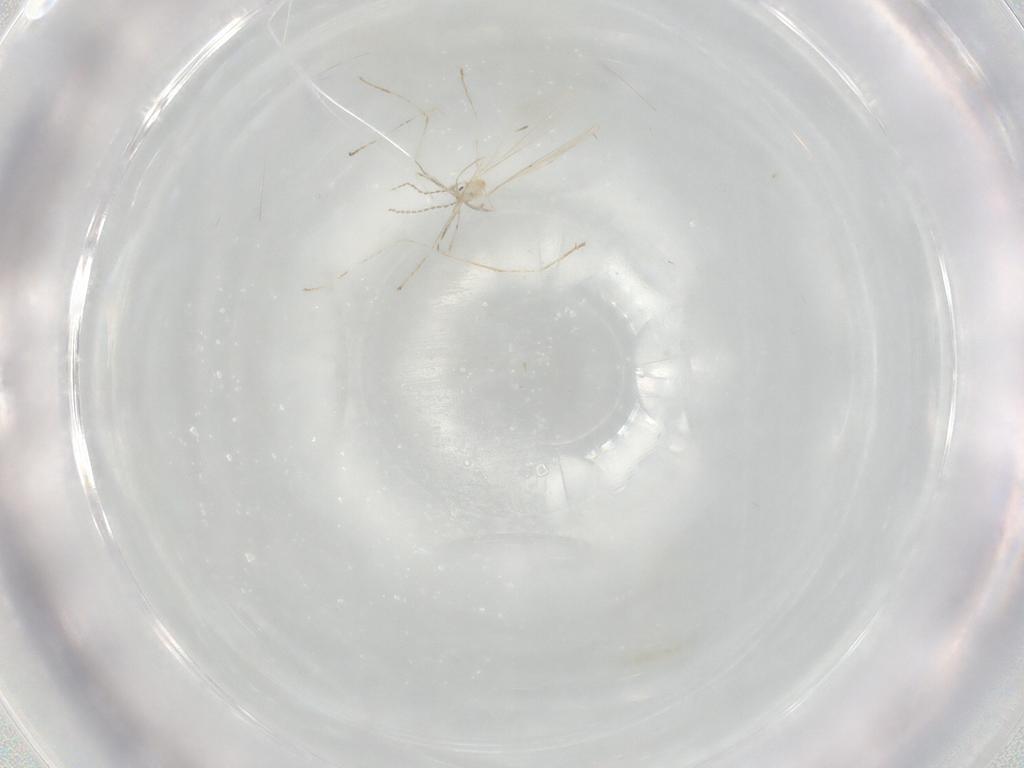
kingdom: Animalia
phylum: Arthropoda
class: Insecta
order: Diptera
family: Cecidomyiidae
